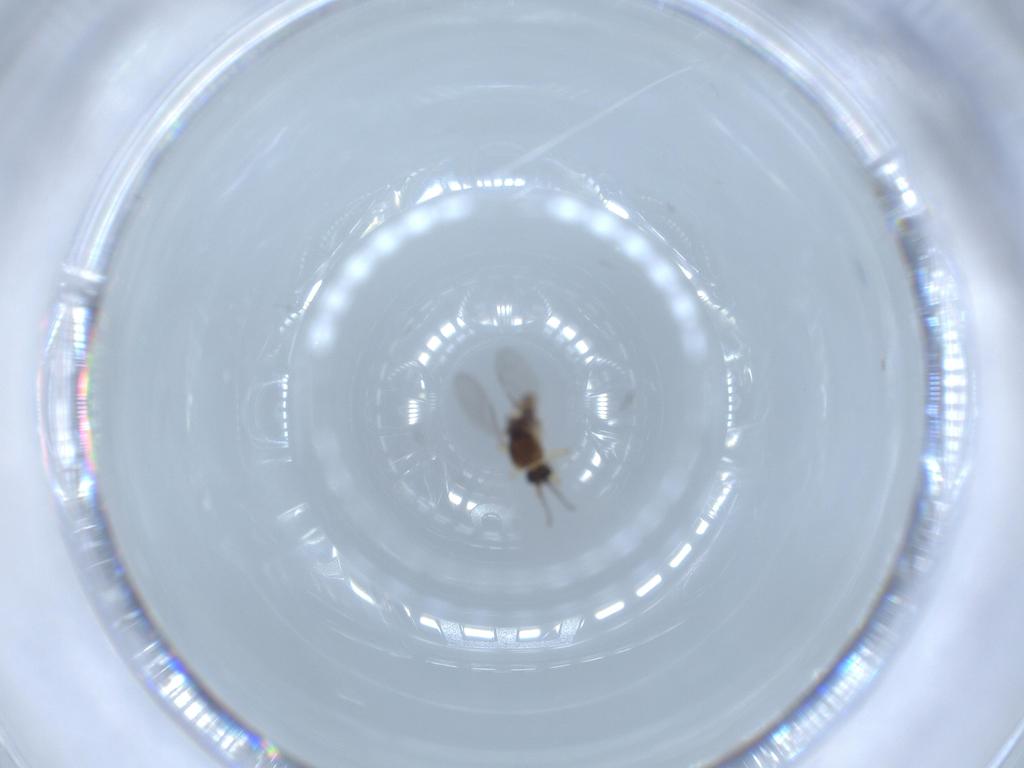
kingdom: Animalia
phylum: Arthropoda
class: Insecta
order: Diptera
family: Ceratopogonidae
